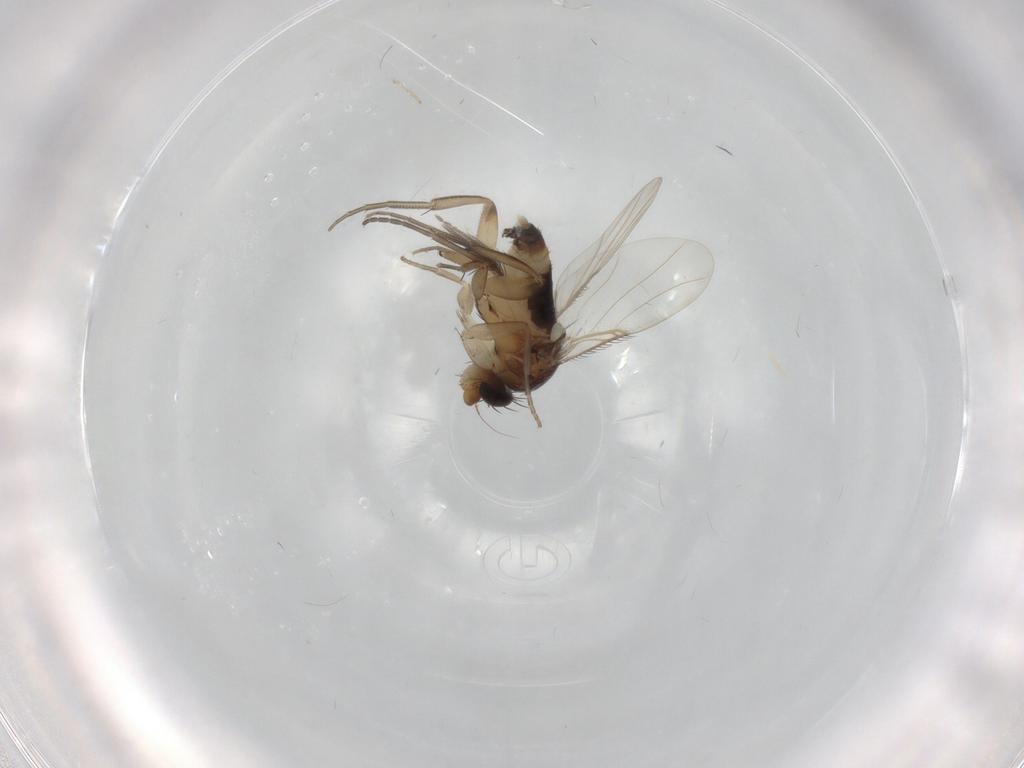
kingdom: Animalia
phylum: Arthropoda
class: Insecta
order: Diptera
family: Phoridae
